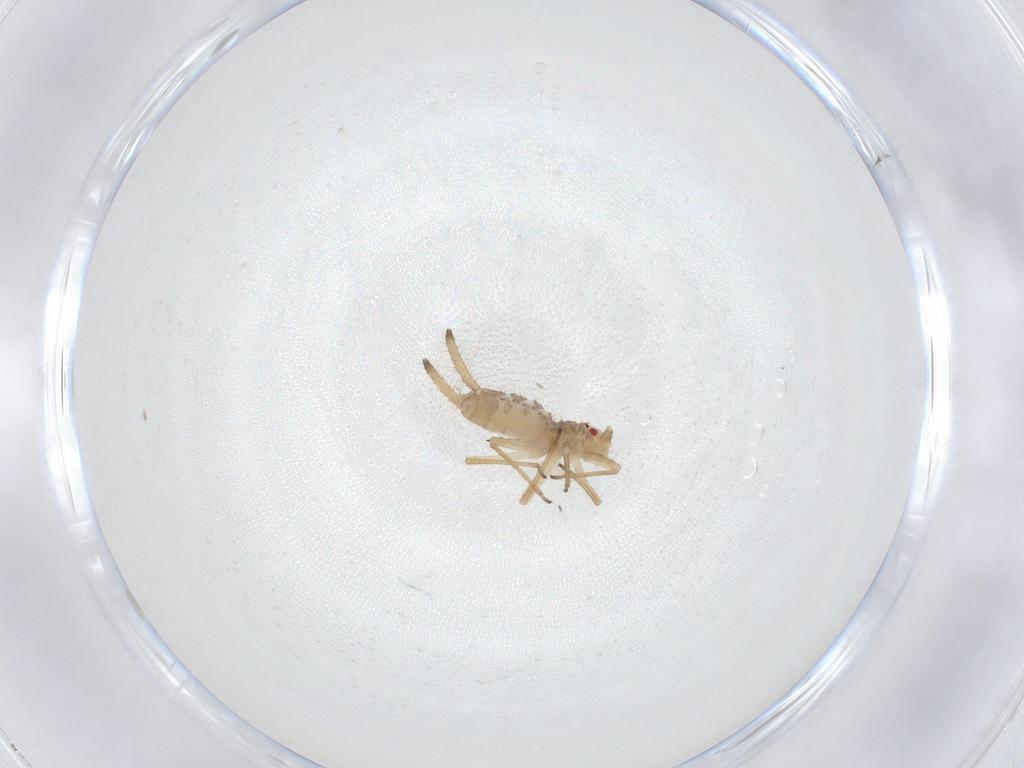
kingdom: Animalia
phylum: Arthropoda
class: Insecta
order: Hemiptera
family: Aphididae
